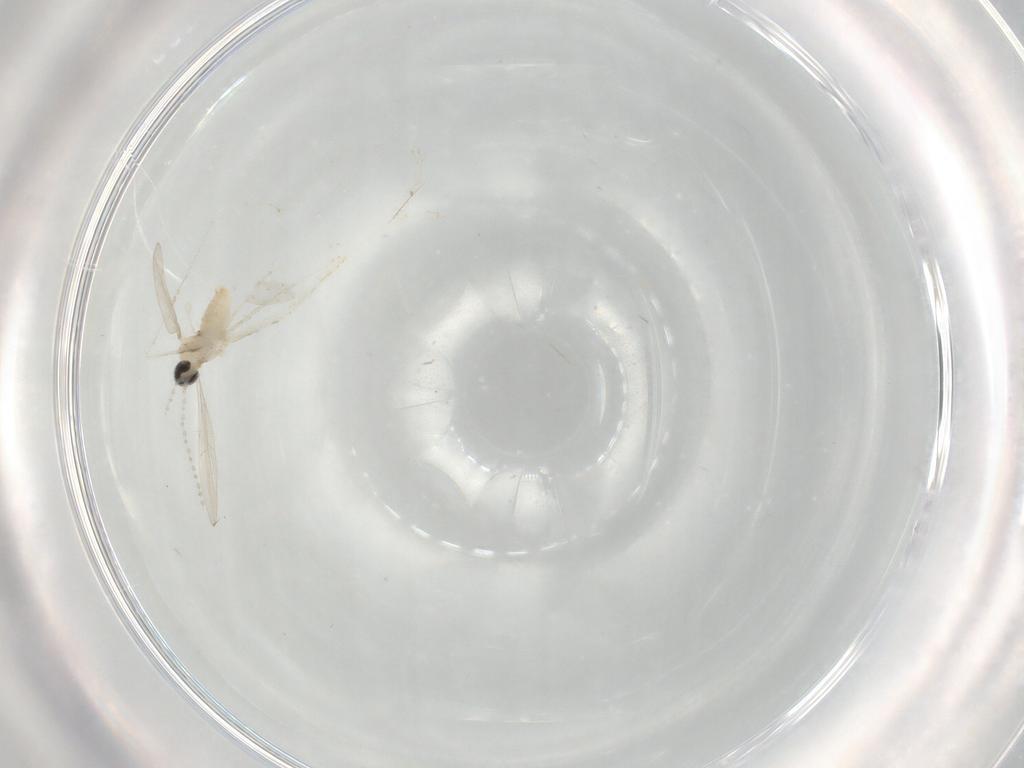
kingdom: Animalia
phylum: Arthropoda
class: Insecta
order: Diptera
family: Cecidomyiidae
